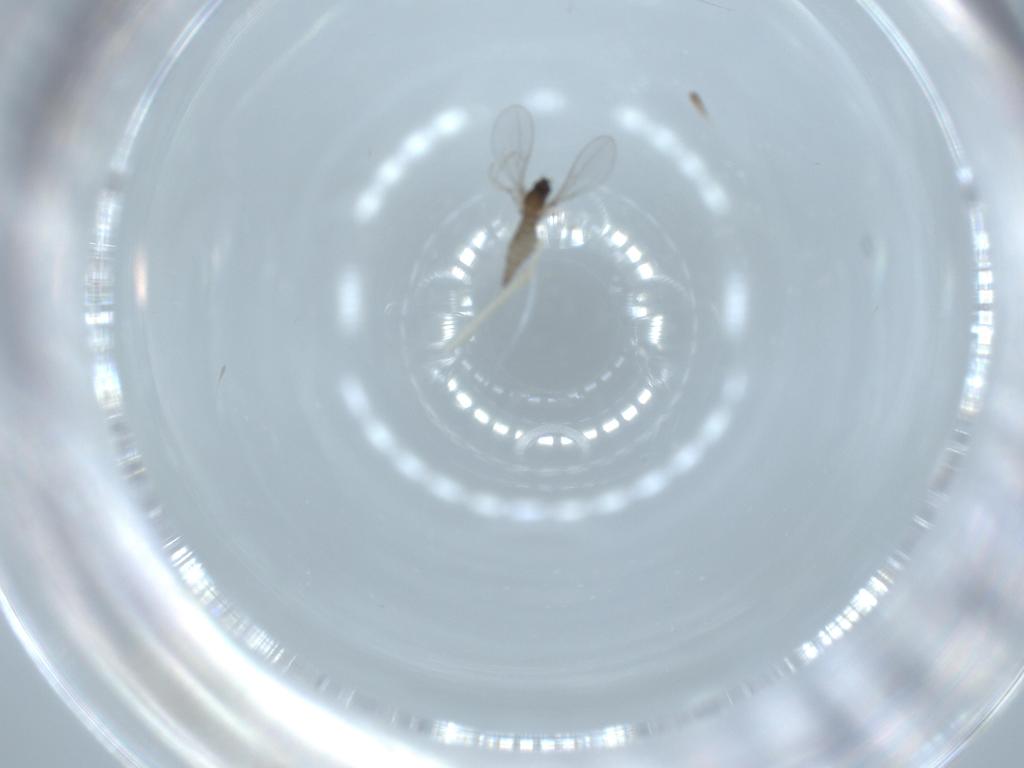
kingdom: Animalia
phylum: Arthropoda
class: Insecta
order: Diptera
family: Cecidomyiidae
